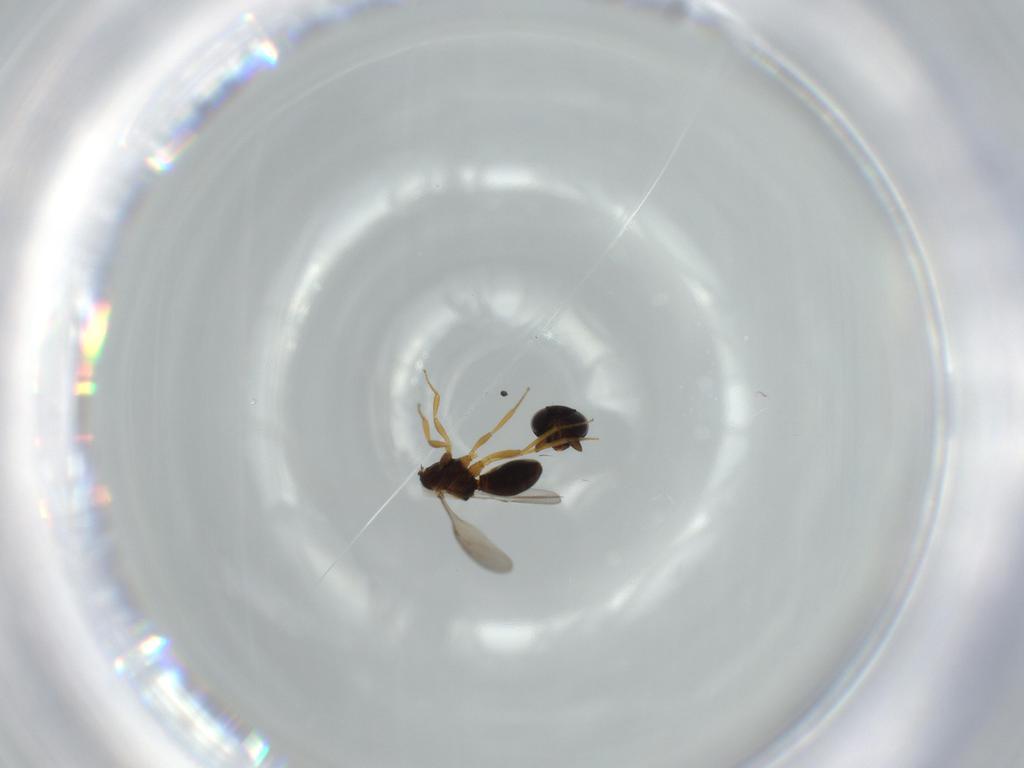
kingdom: Animalia
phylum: Arthropoda
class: Insecta
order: Hymenoptera
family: Scelionidae
